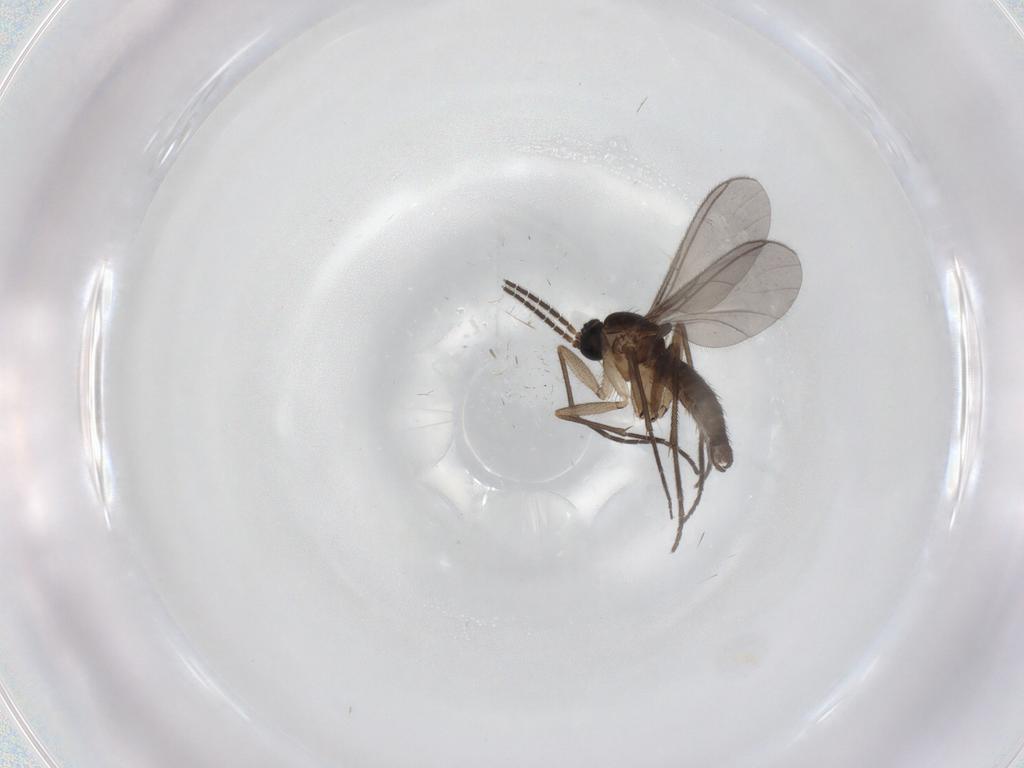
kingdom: Animalia
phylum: Arthropoda
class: Insecta
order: Diptera
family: Sciaridae
